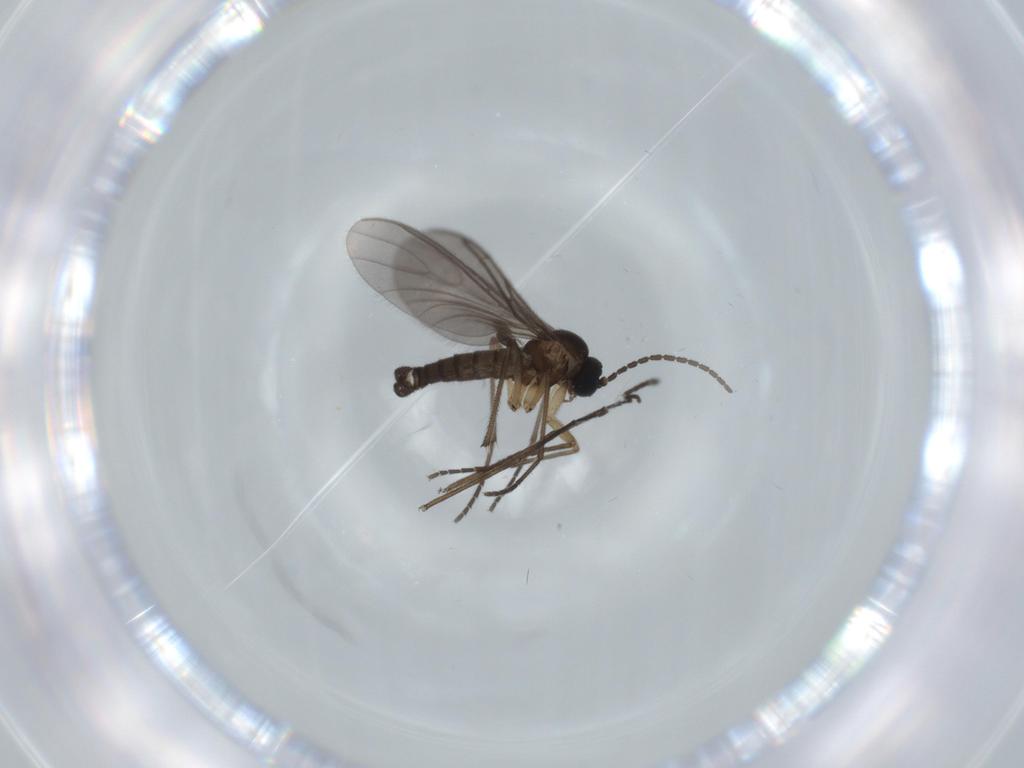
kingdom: Animalia
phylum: Arthropoda
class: Insecta
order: Diptera
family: Sciaridae
